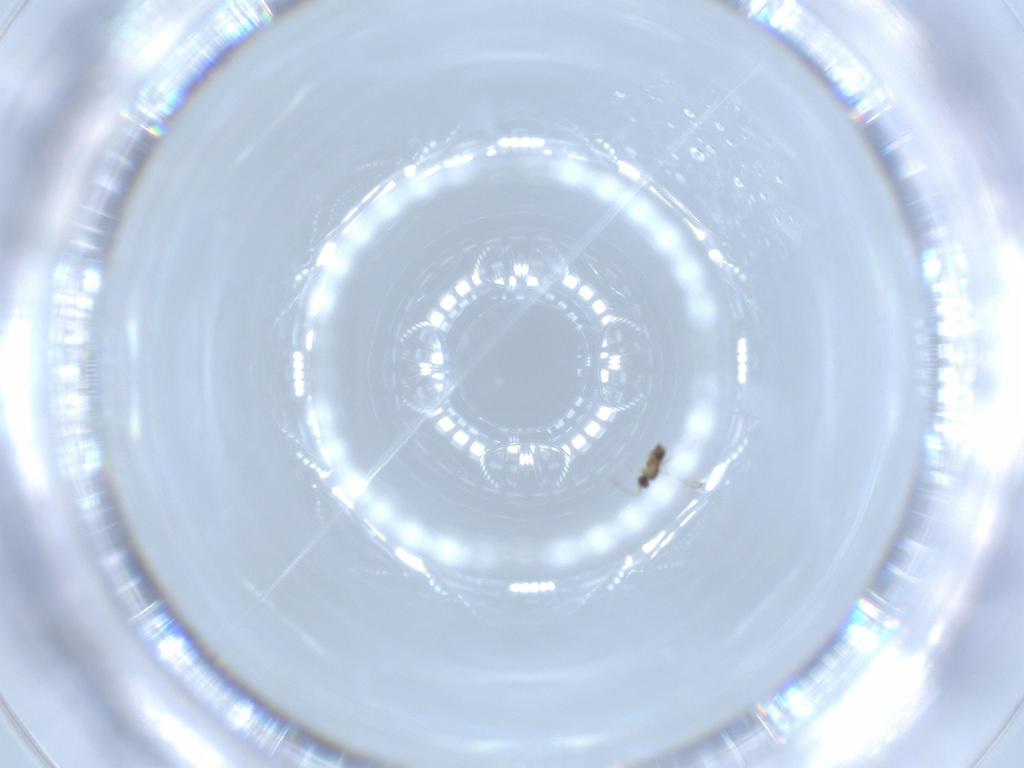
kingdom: Animalia
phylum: Arthropoda
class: Insecta
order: Hymenoptera
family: Mymaridae
